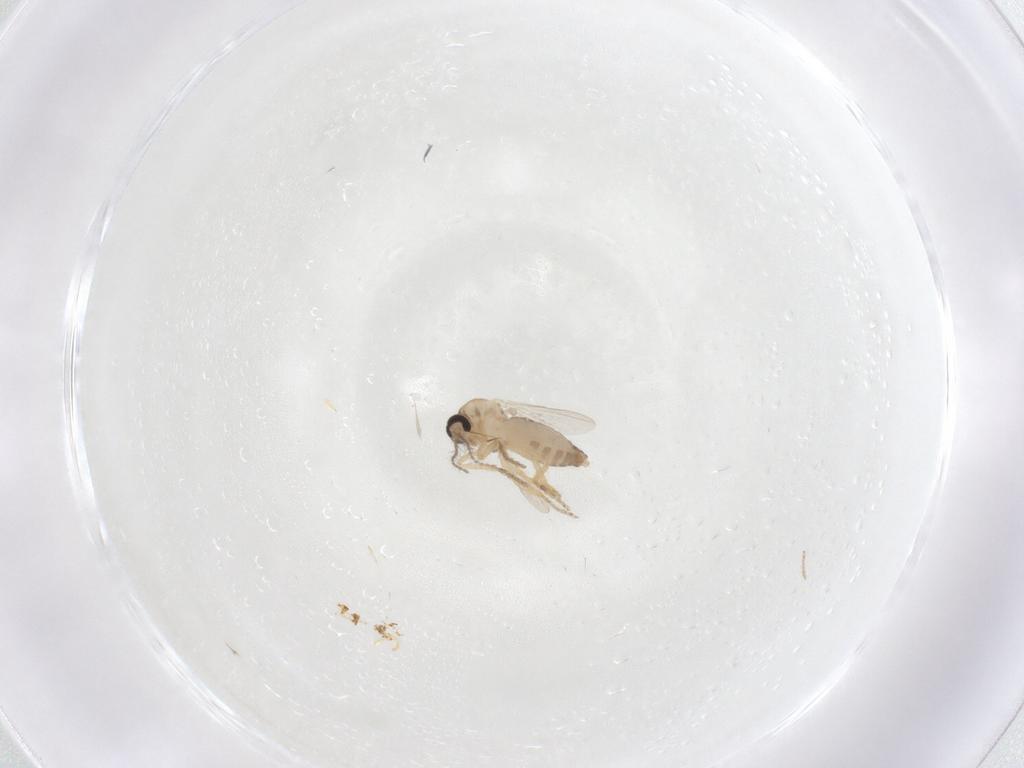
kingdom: Animalia
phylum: Arthropoda
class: Insecta
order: Diptera
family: Ceratopogonidae
